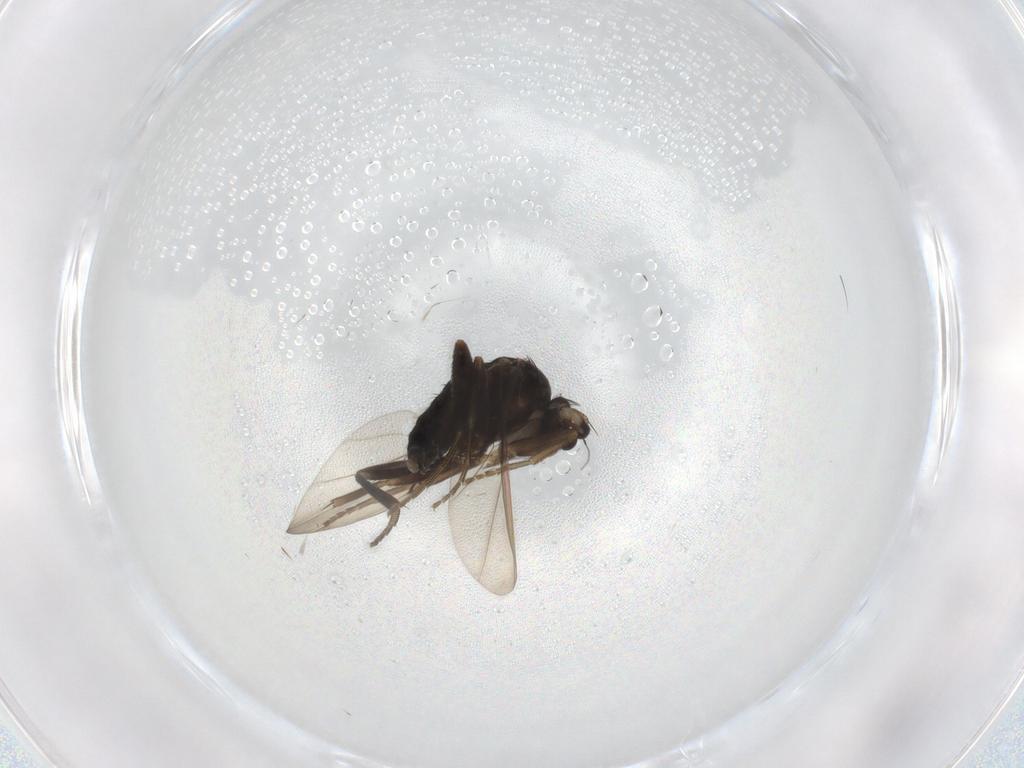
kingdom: Animalia
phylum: Arthropoda
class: Insecta
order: Diptera
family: Phoridae
